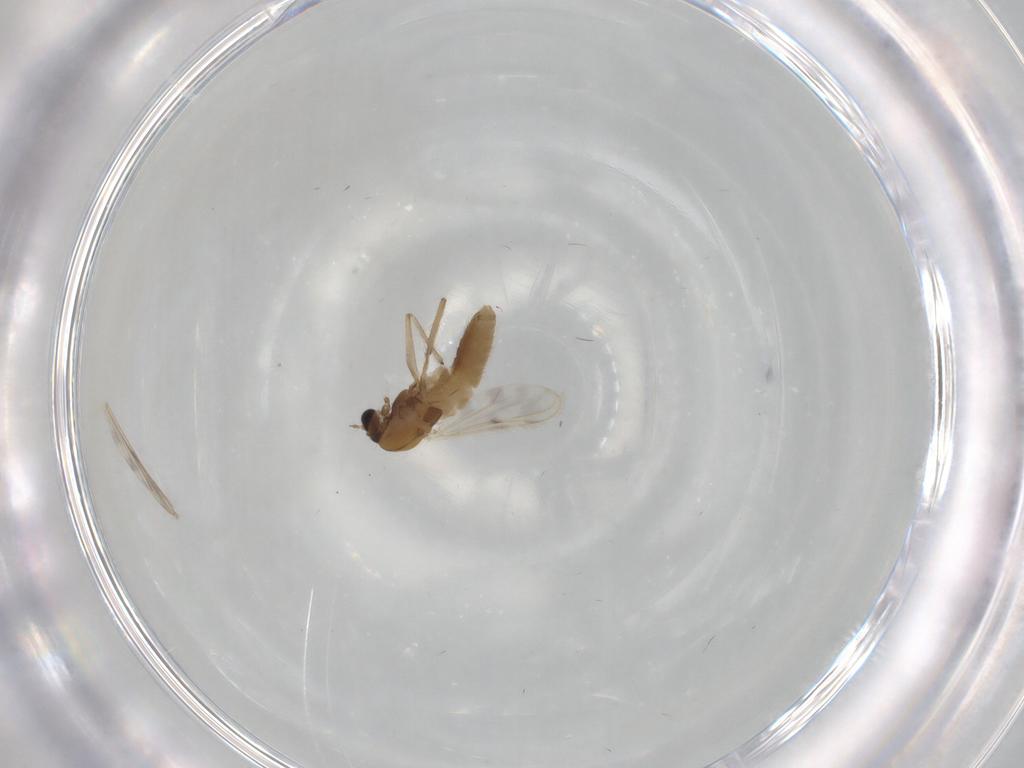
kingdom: Animalia
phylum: Arthropoda
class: Insecta
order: Diptera
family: Chironomidae
